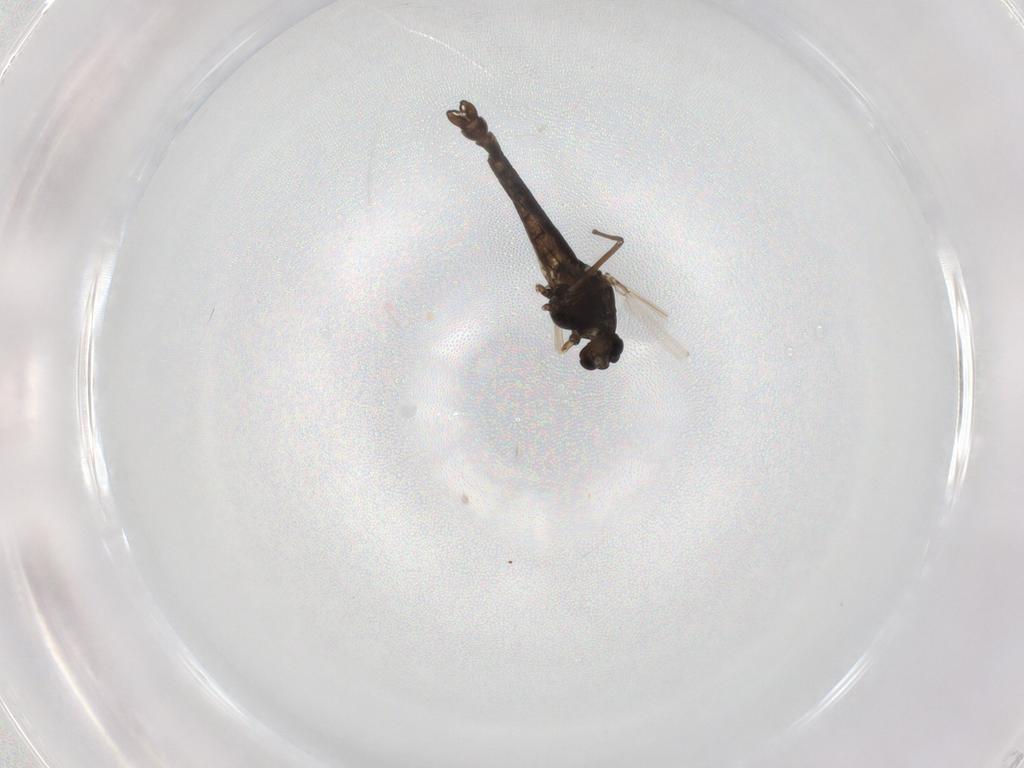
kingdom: Animalia
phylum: Arthropoda
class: Insecta
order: Diptera
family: Chironomidae
